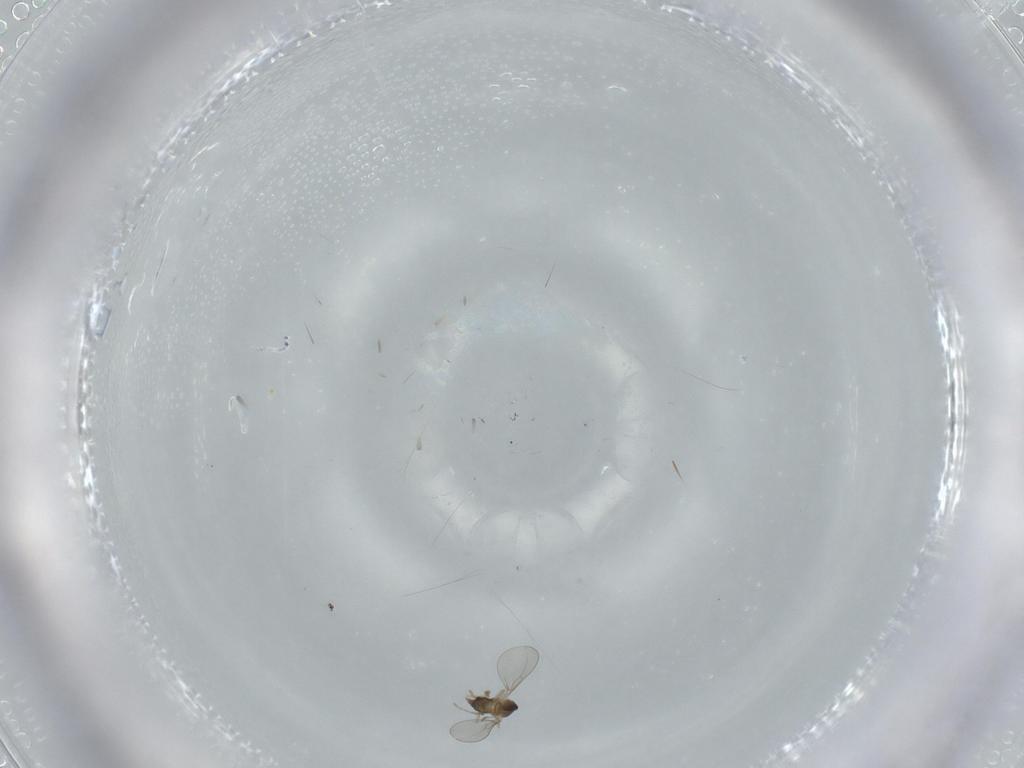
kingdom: Animalia
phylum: Arthropoda
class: Insecta
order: Diptera
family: Cecidomyiidae
